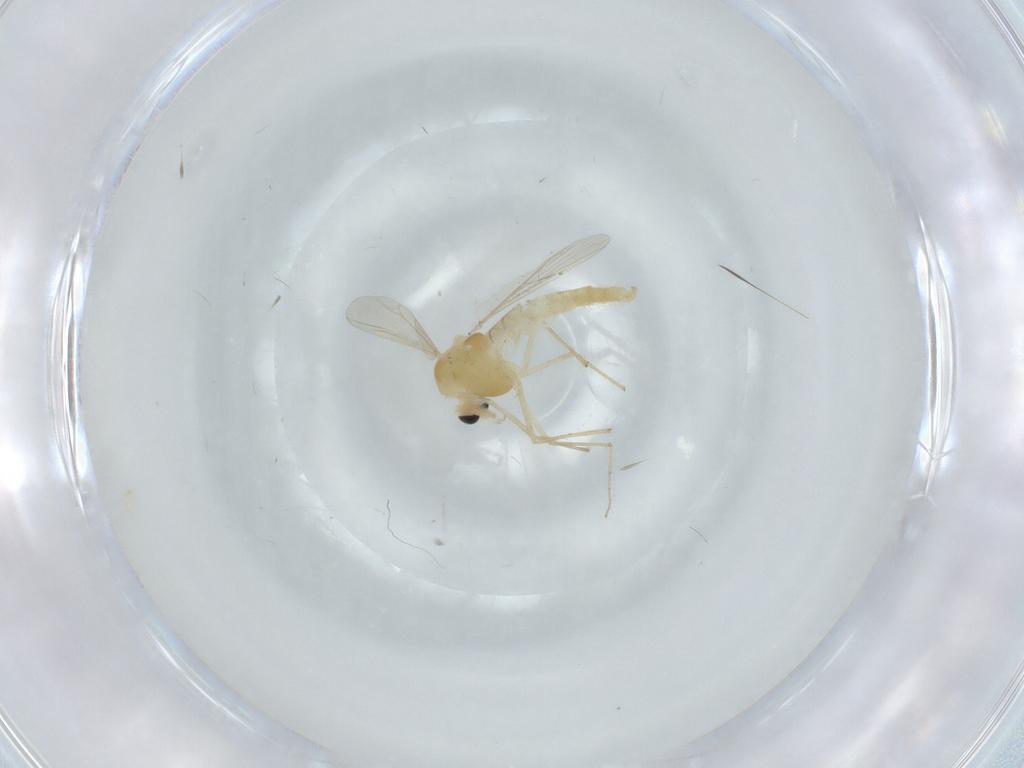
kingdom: Animalia
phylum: Arthropoda
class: Insecta
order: Diptera
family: Chironomidae
